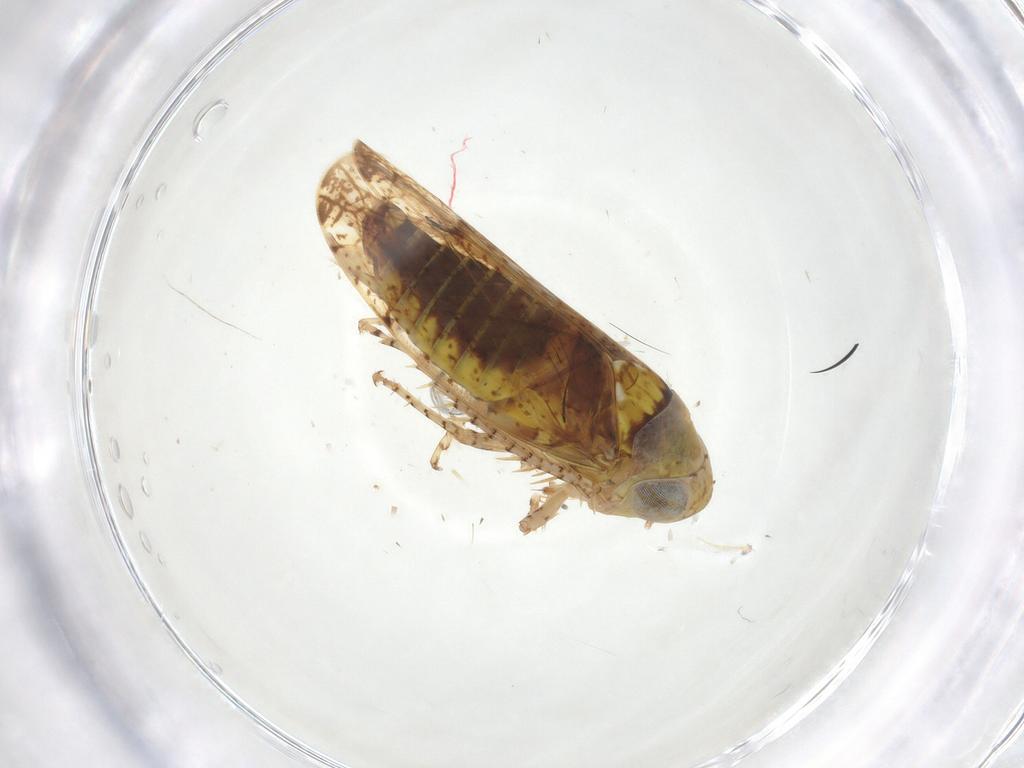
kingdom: Animalia
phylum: Arthropoda
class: Insecta
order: Hemiptera
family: Cicadellidae
